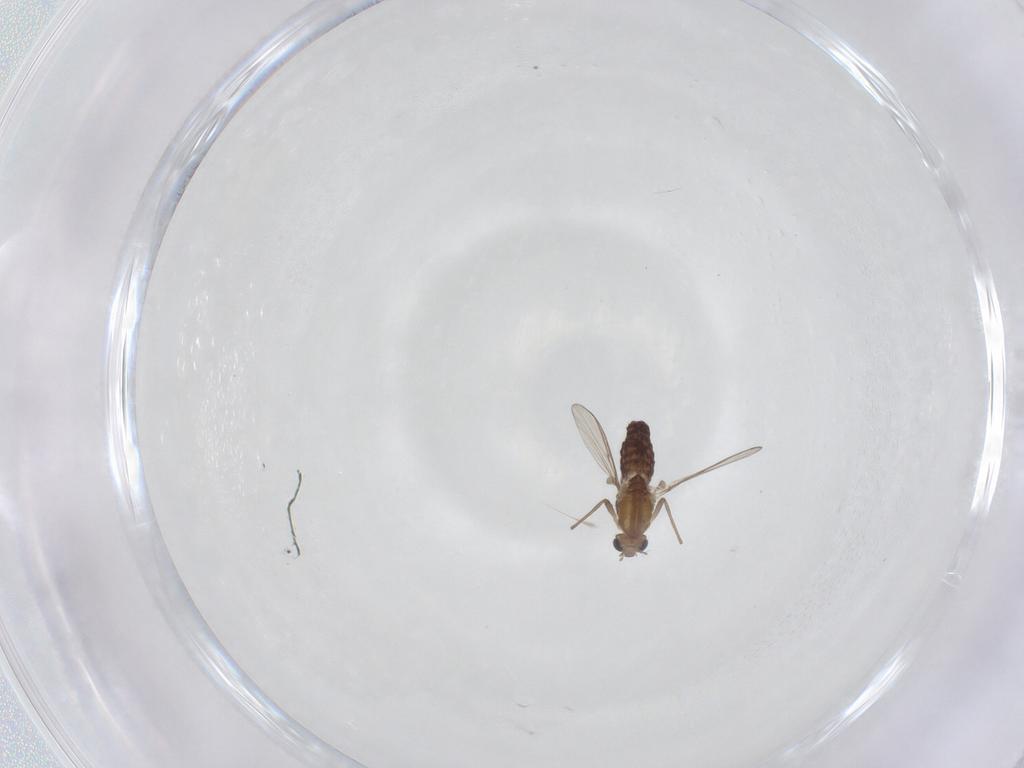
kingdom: Animalia
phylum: Arthropoda
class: Insecta
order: Diptera
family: Chironomidae
